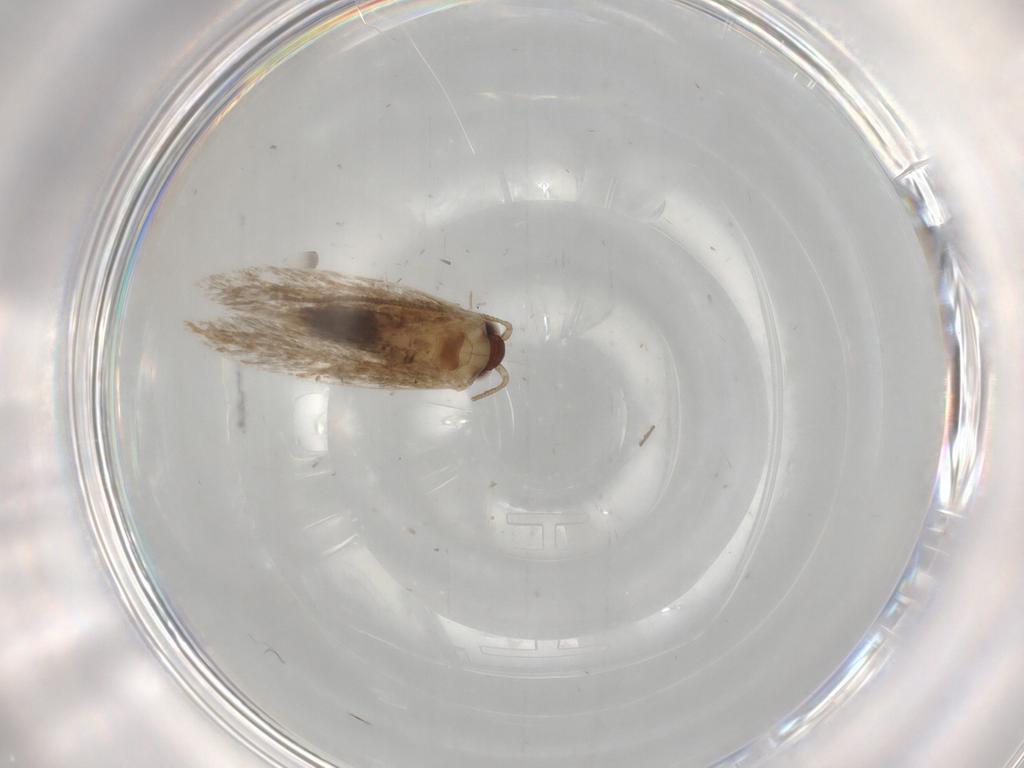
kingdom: Animalia
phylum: Arthropoda
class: Insecta
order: Lepidoptera
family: Tineidae
